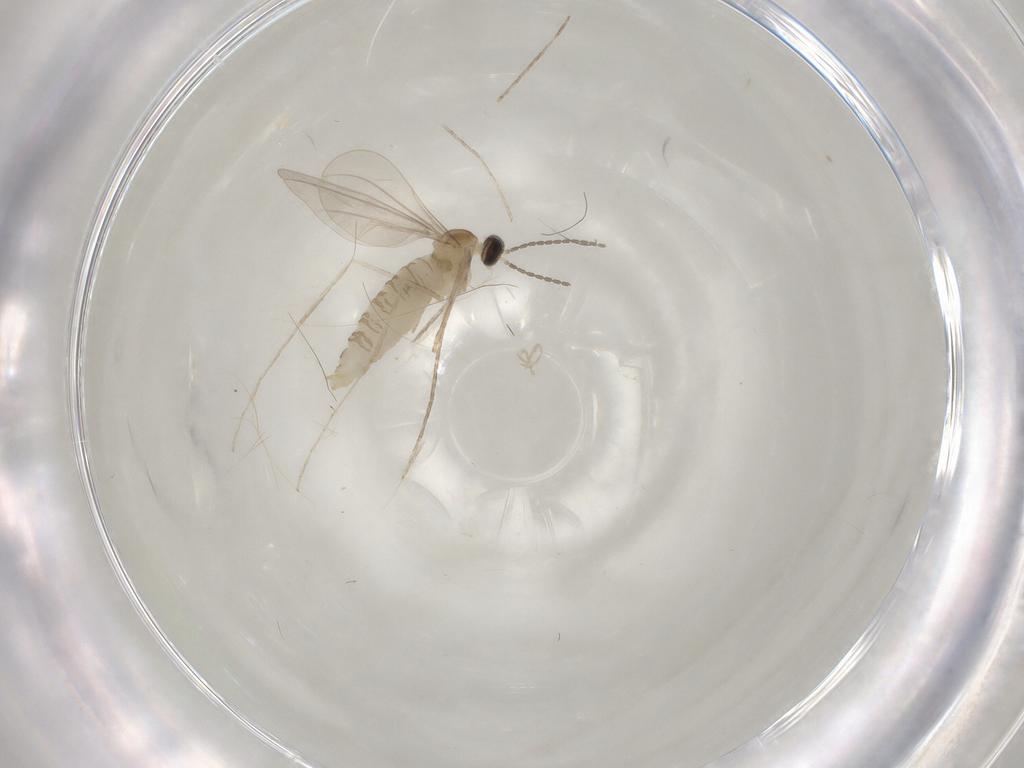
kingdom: Animalia
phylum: Arthropoda
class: Insecta
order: Diptera
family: Cecidomyiidae
